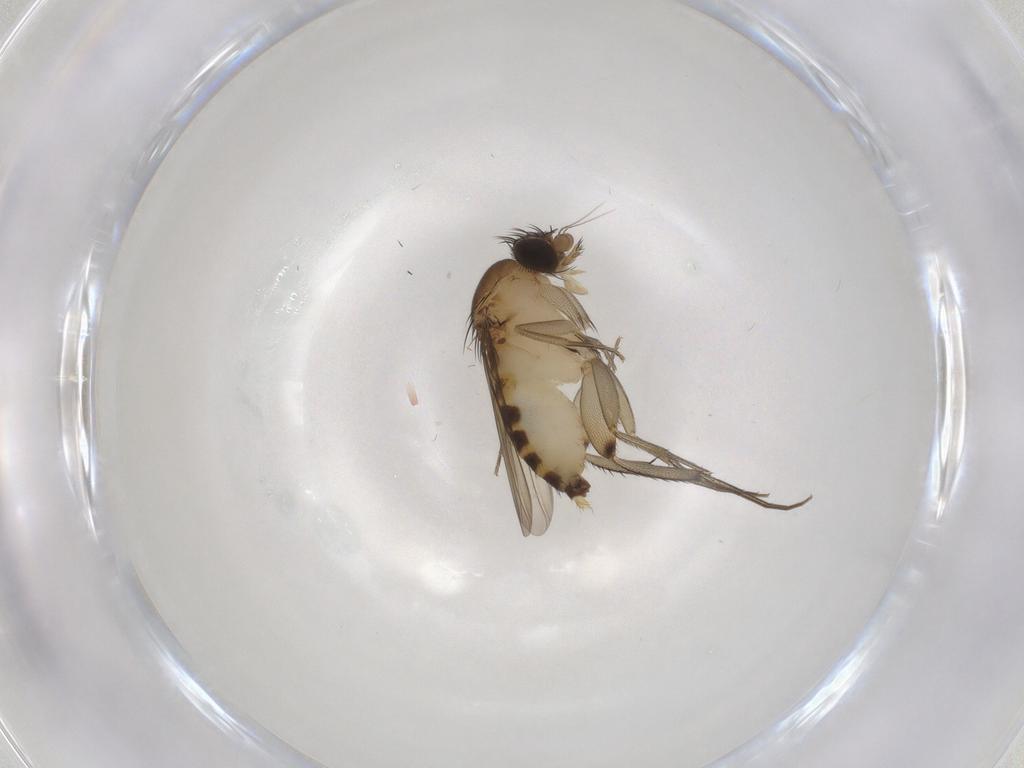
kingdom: Animalia
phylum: Arthropoda
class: Insecta
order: Diptera
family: Phoridae
